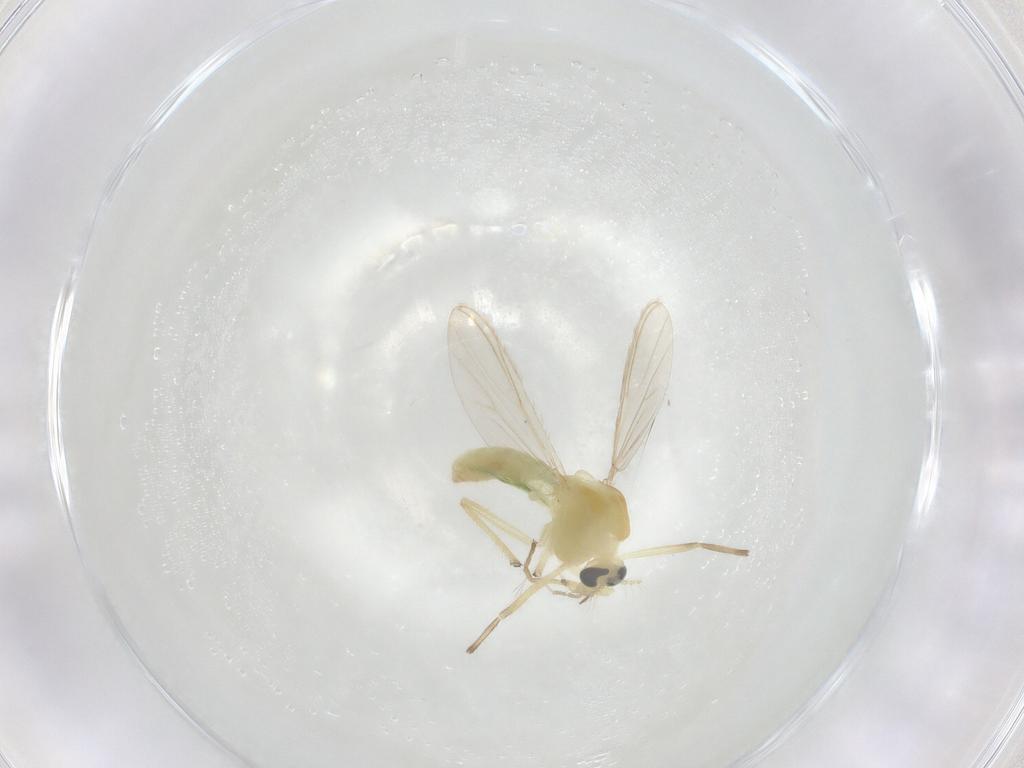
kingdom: Animalia
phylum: Arthropoda
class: Insecta
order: Diptera
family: Chironomidae
